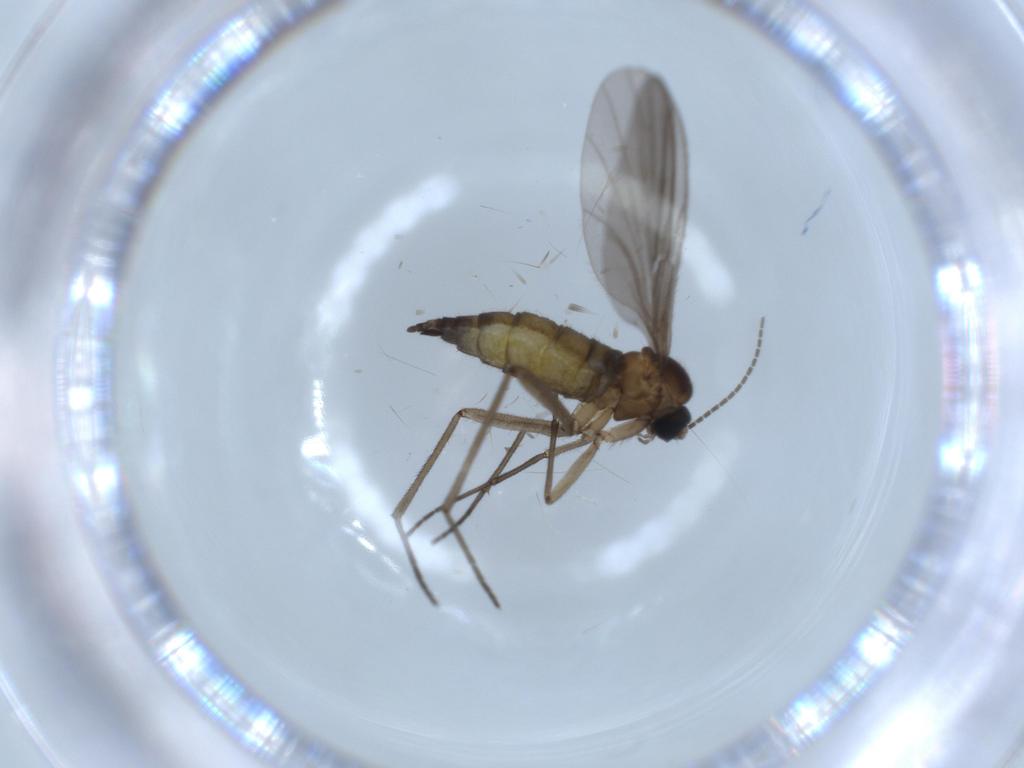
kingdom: Animalia
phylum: Arthropoda
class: Insecta
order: Diptera
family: Sciaridae
